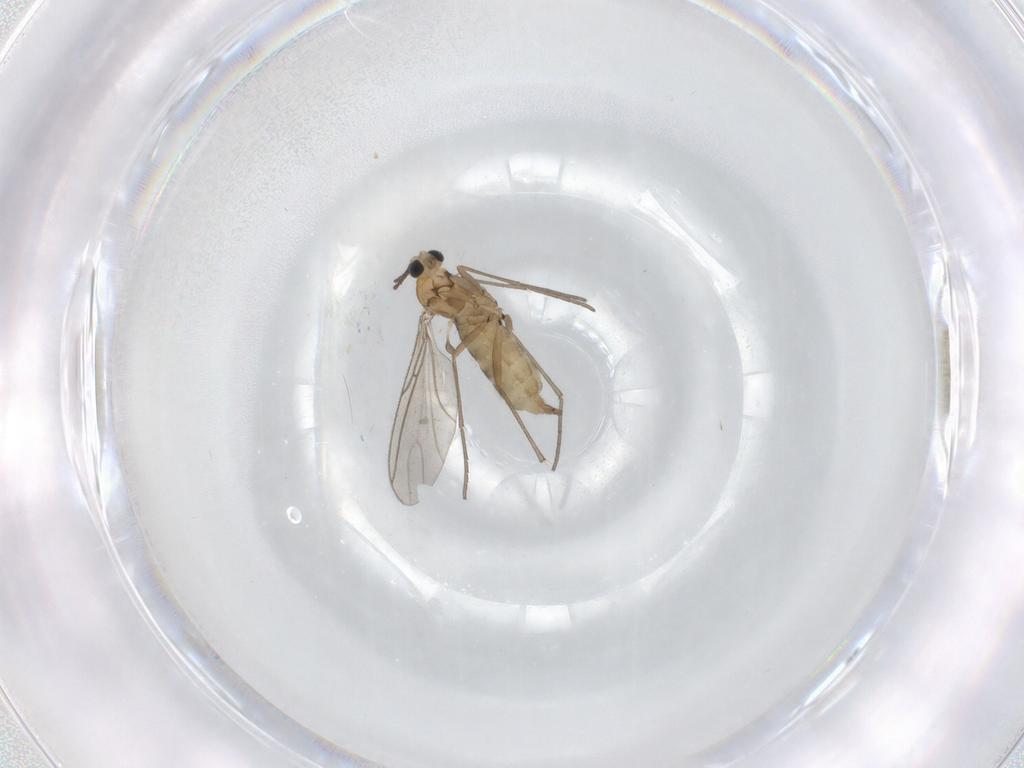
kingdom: Animalia
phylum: Arthropoda
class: Insecta
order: Diptera
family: Sciaridae
